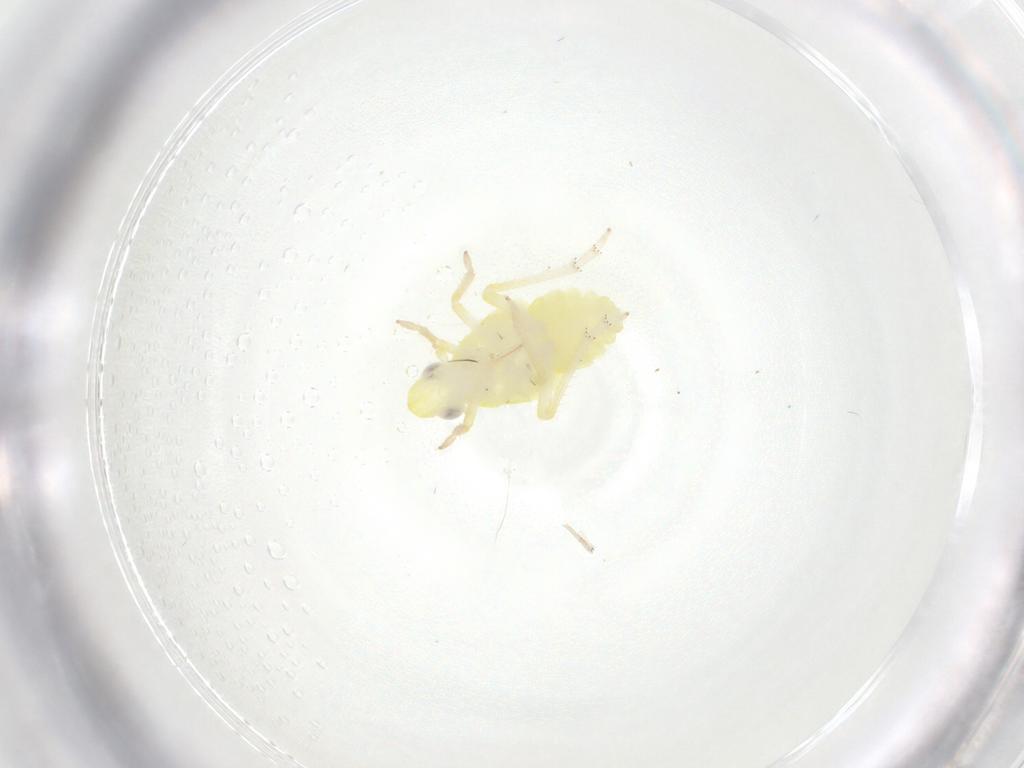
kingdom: Animalia
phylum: Arthropoda
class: Insecta
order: Hemiptera
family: Tropiduchidae
